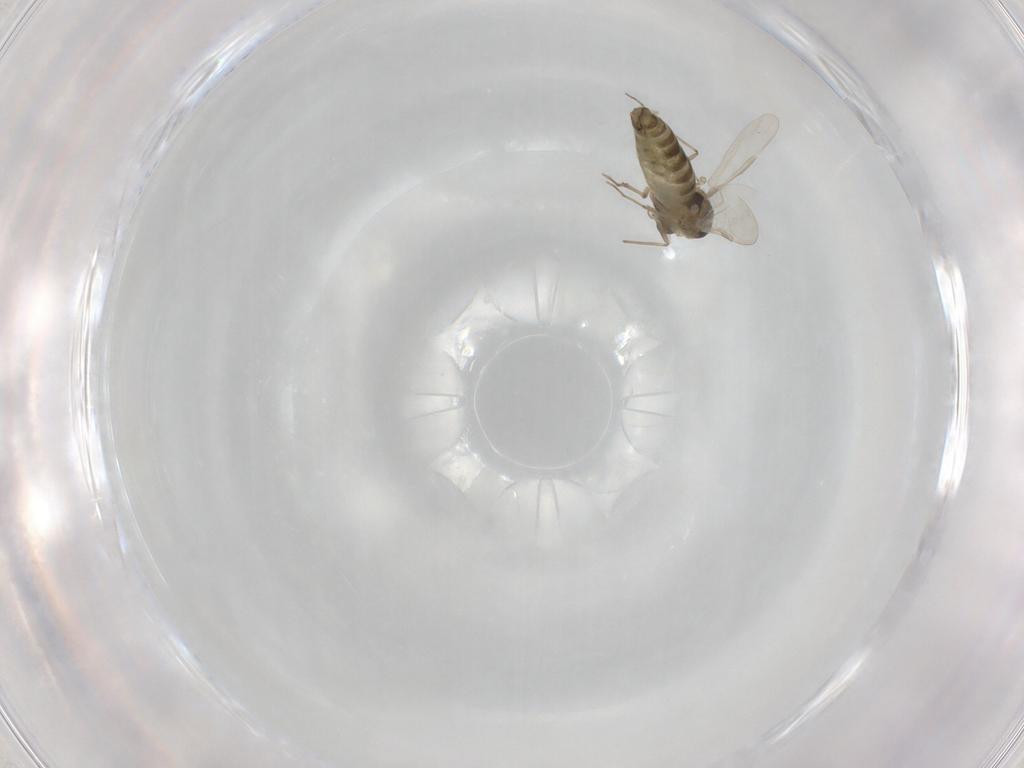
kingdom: Animalia
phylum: Arthropoda
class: Insecta
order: Diptera
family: Chironomidae
